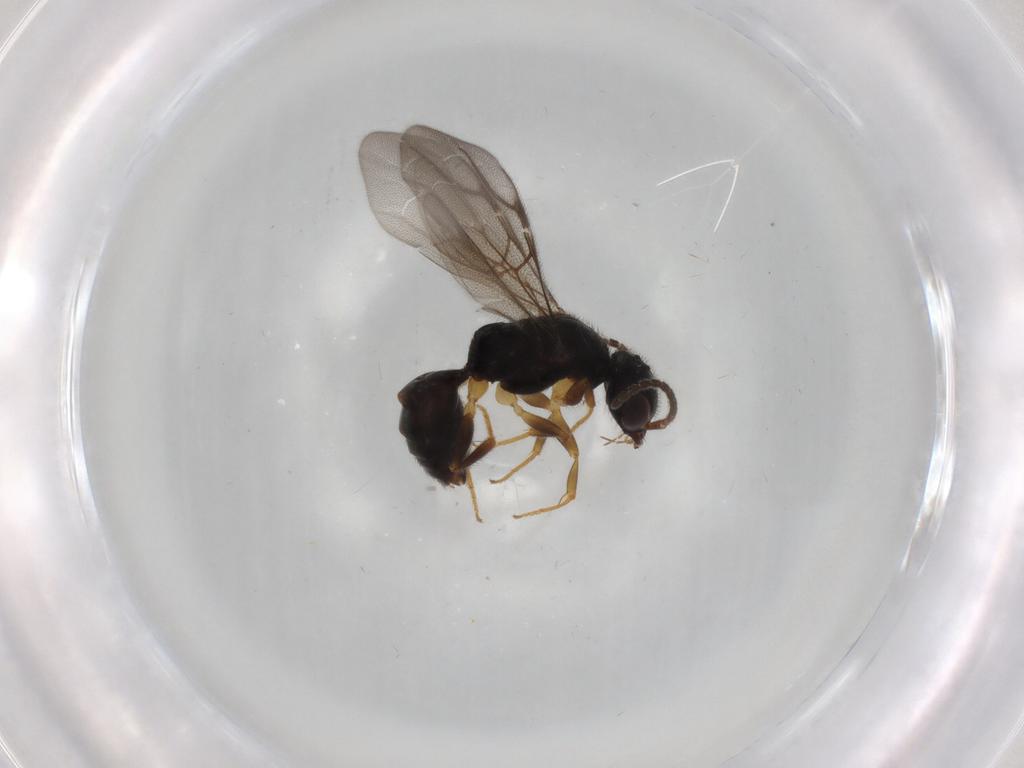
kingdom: Animalia
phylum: Arthropoda
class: Insecta
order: Hymenoptera
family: Bethylidae
